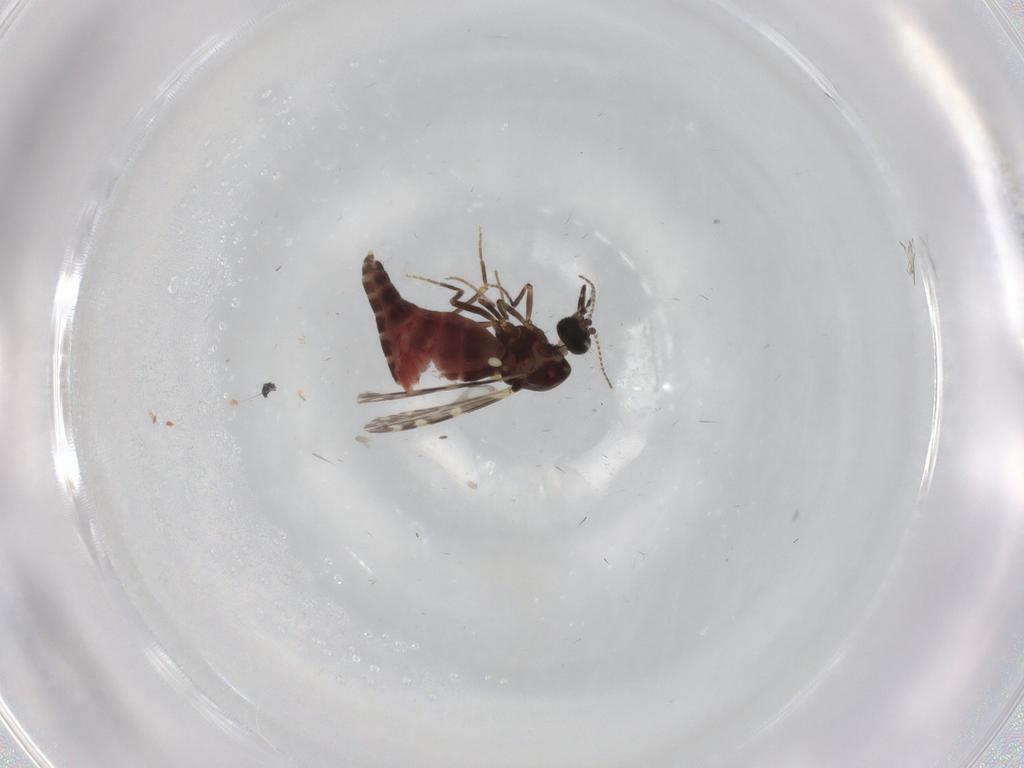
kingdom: Animalia
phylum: Arthropoda
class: Insecta
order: Diptera
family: Ceratopogonidae
